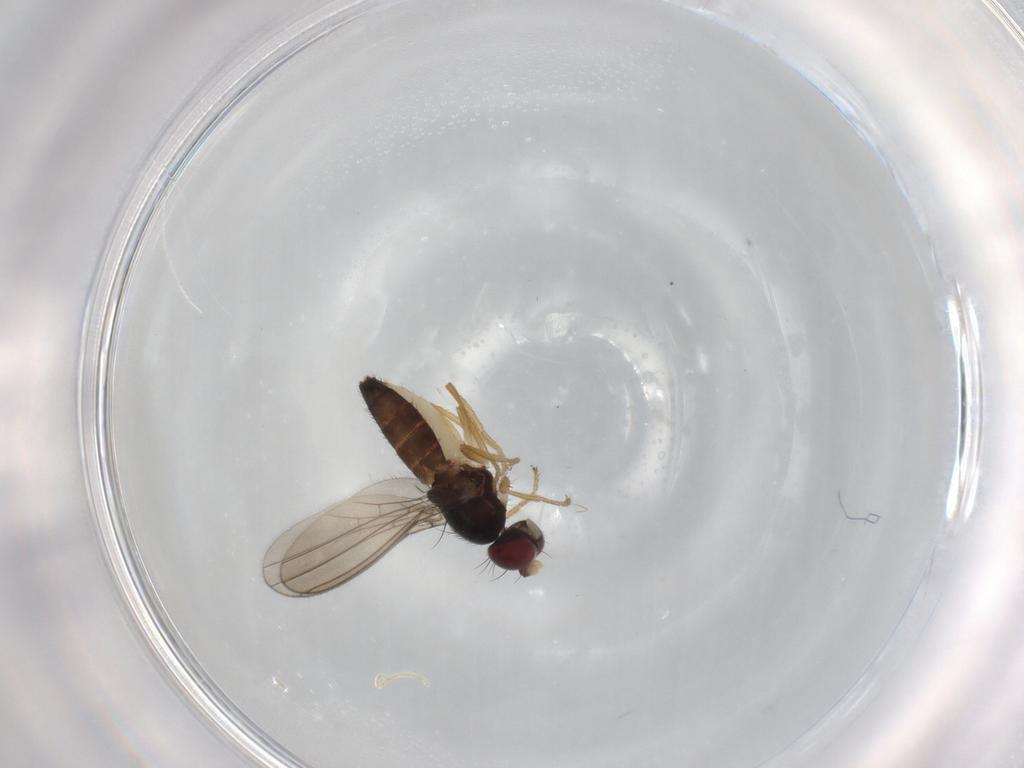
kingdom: Animalia
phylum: Arthropoda
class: Insecta
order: Diptera
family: Anthomyzidae
